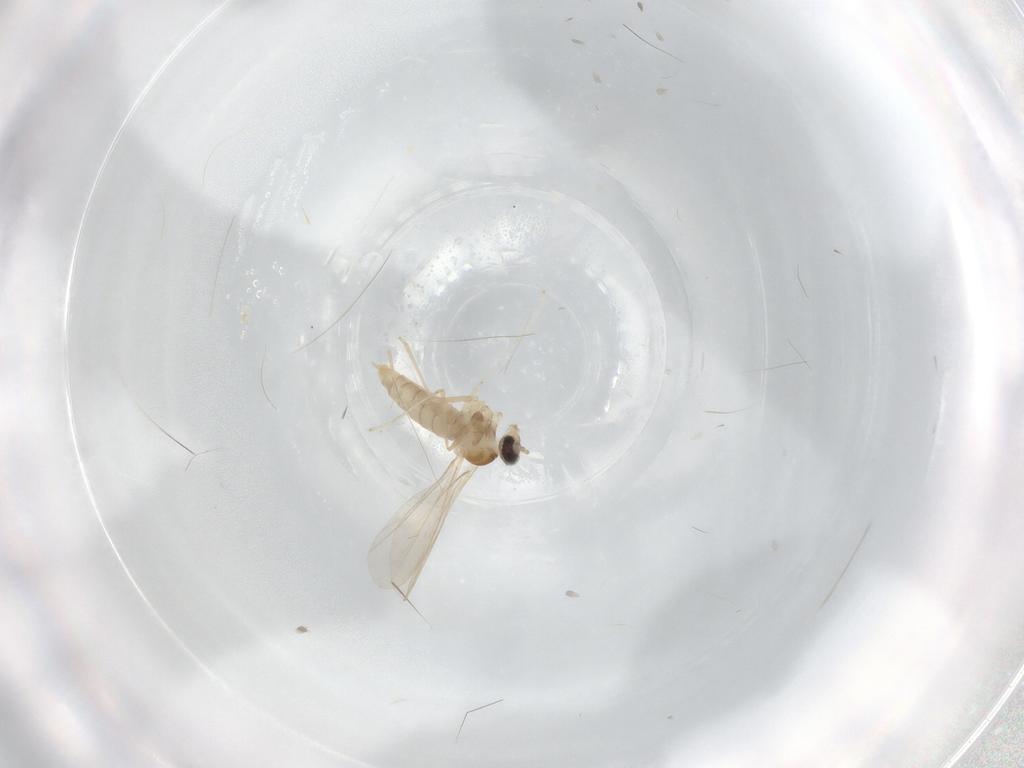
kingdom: Animalia
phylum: Arthropoda
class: Insecta
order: Diptera
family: Cecidomyiidae
